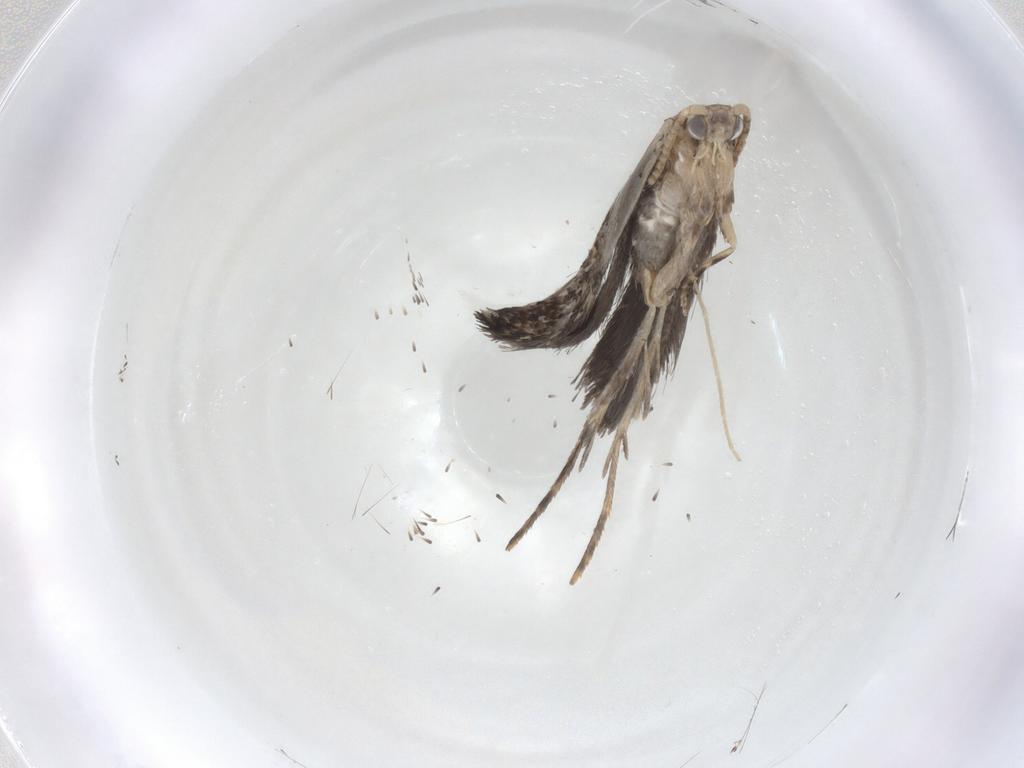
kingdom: Animalia
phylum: Arthropoda
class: Insecta
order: Lepidoptera
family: Tineidae
